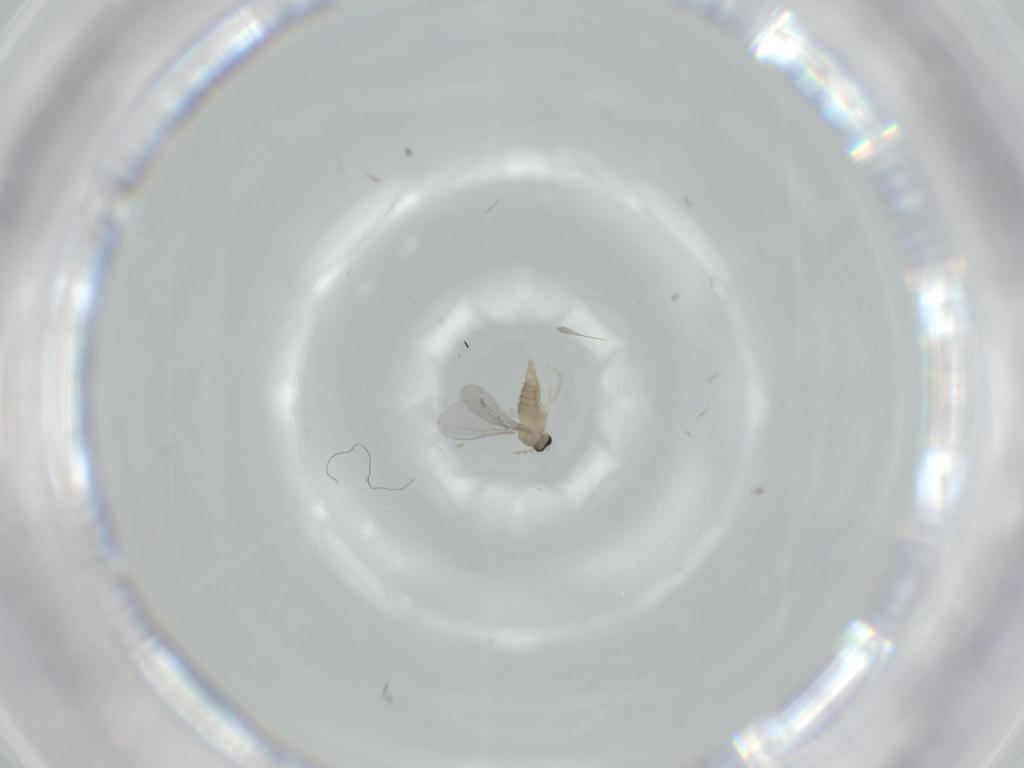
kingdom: Animalia
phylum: Arthropoda
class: Insecta
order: Diptera
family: Cecidomyiidae
